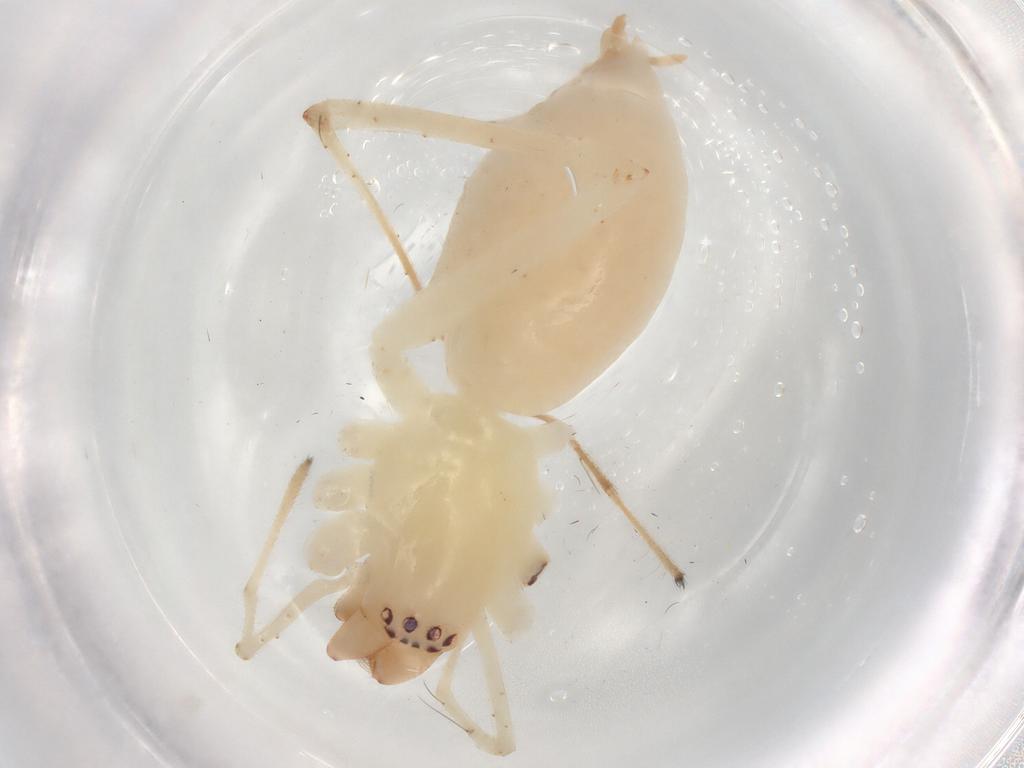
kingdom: Animalia
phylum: Arthropoda
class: Arachnida
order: Araneae
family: Anyphaenidae
